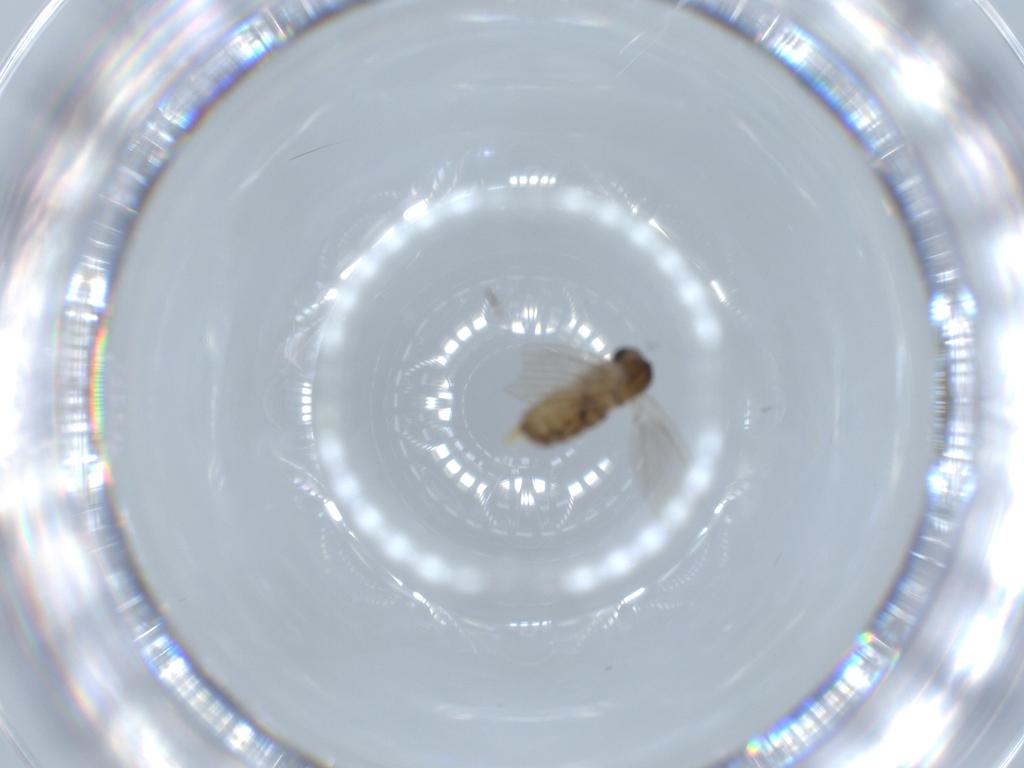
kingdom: Animalia
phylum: Arthropoda
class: Insecta
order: Diptera
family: Psychodidae
